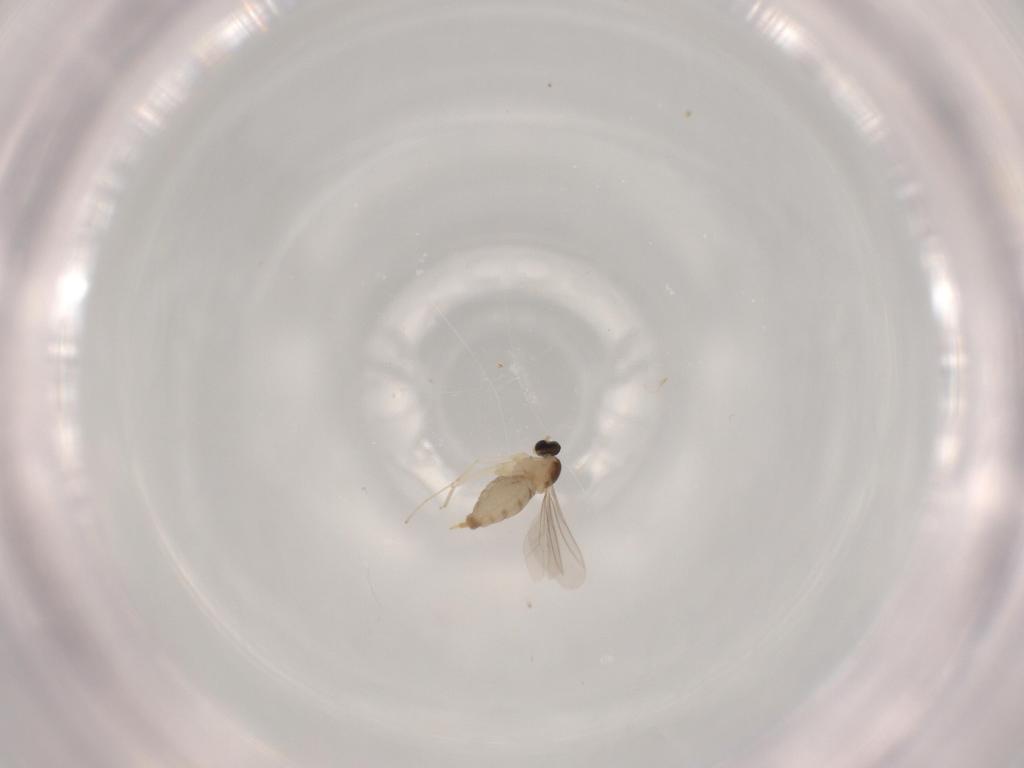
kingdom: Animalia
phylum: Arthropoda
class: Insecta
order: Diptera
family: Cecidomyiidae
